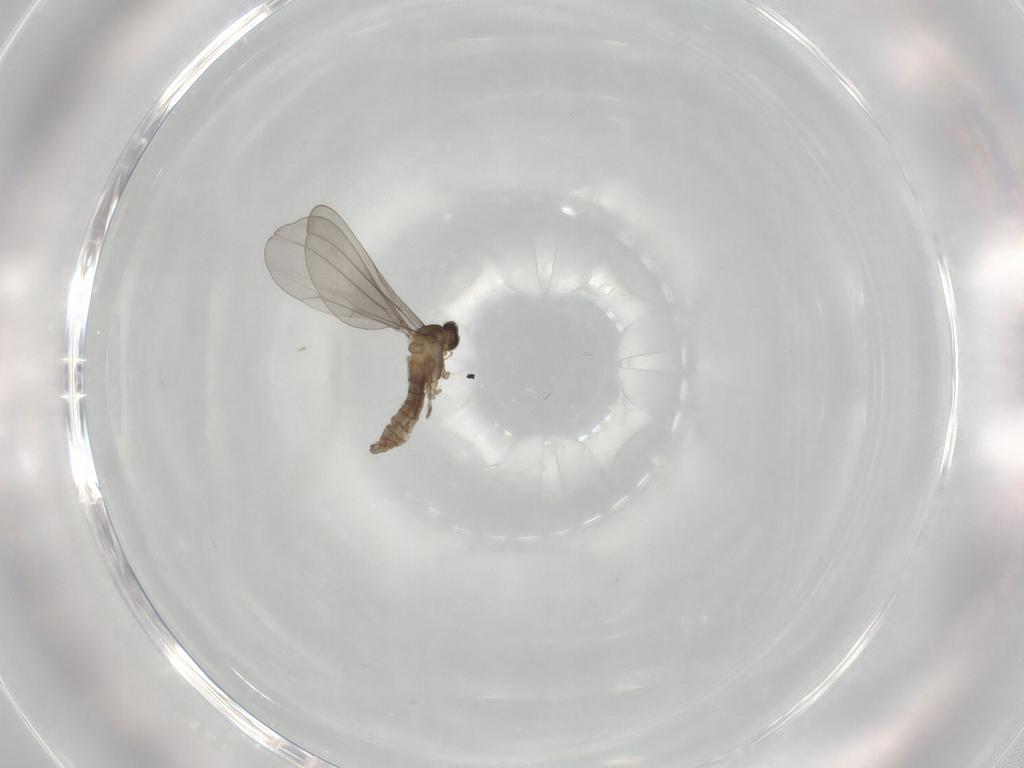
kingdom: Animalia
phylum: Arthropoda
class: Insecta
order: Diptera
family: Cecidomyiidae
